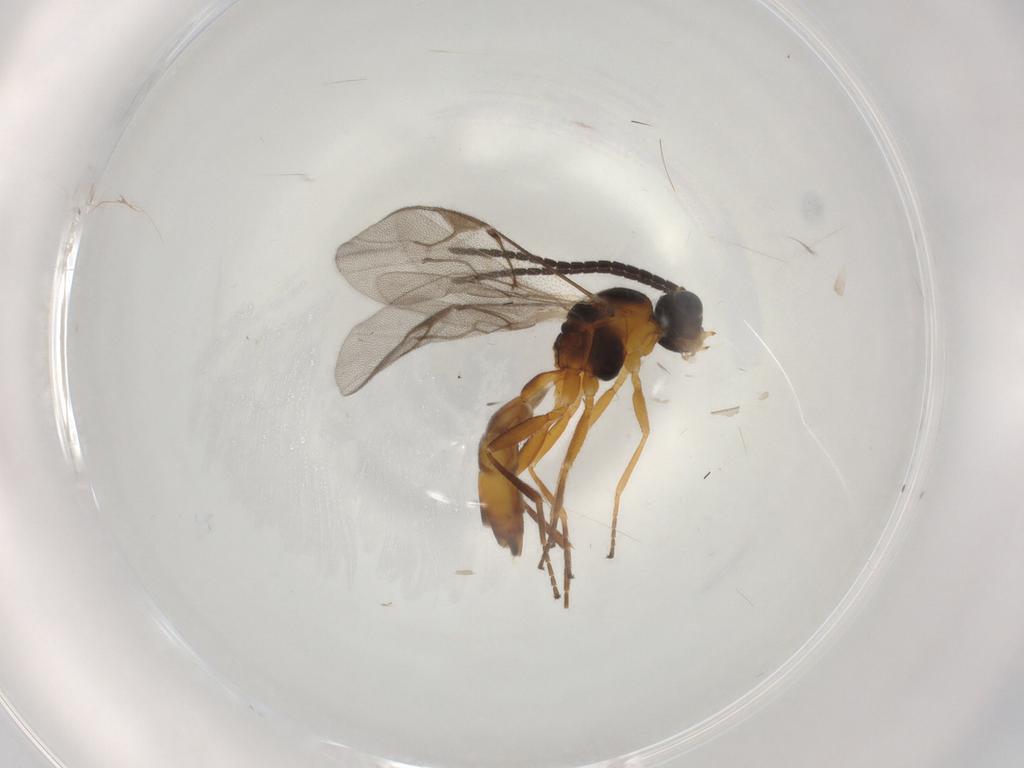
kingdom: Animalia
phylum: Arthropoda
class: Insecta
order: Hymenoptera
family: Braconidae
